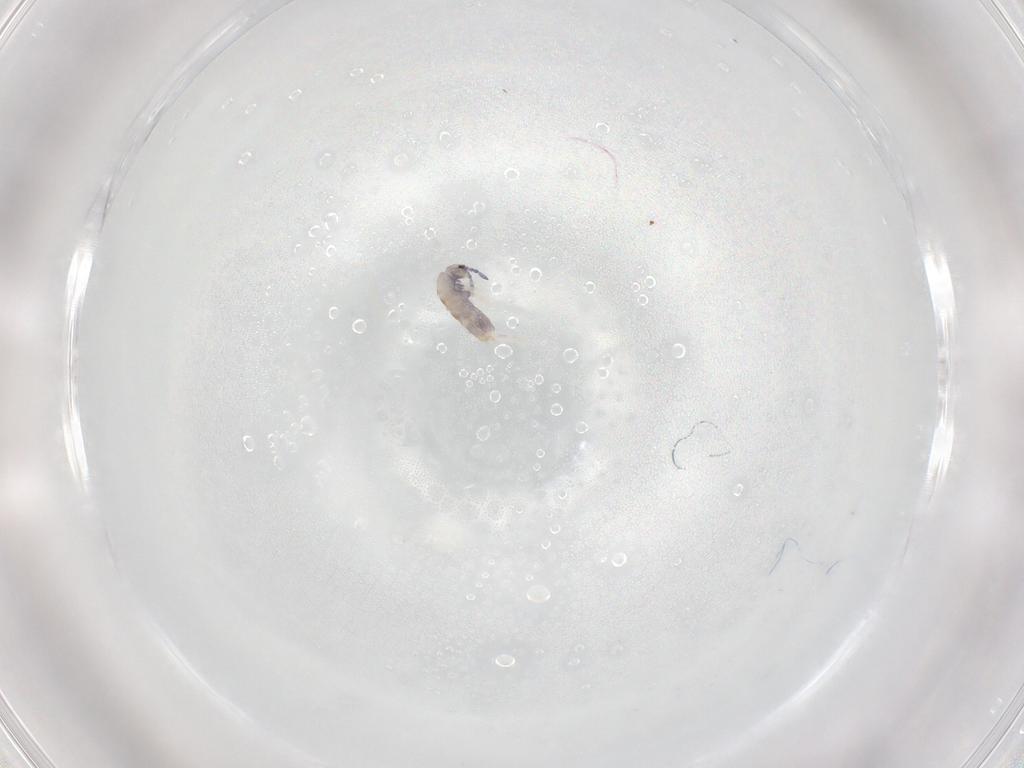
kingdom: Animalia
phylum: Arthropoda
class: Collembola
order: Entomobryomorpha
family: Entomobryidae
